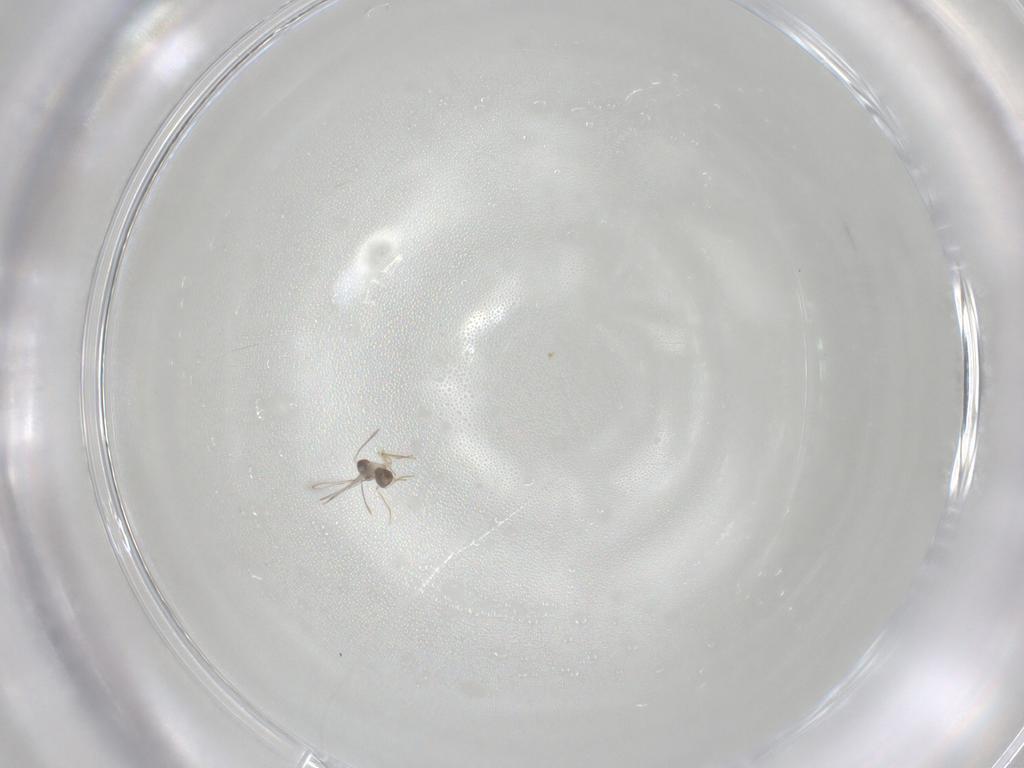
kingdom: Animalia
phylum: Arthropoda
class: Insecta
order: Hymenoptera
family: Mymaridae
